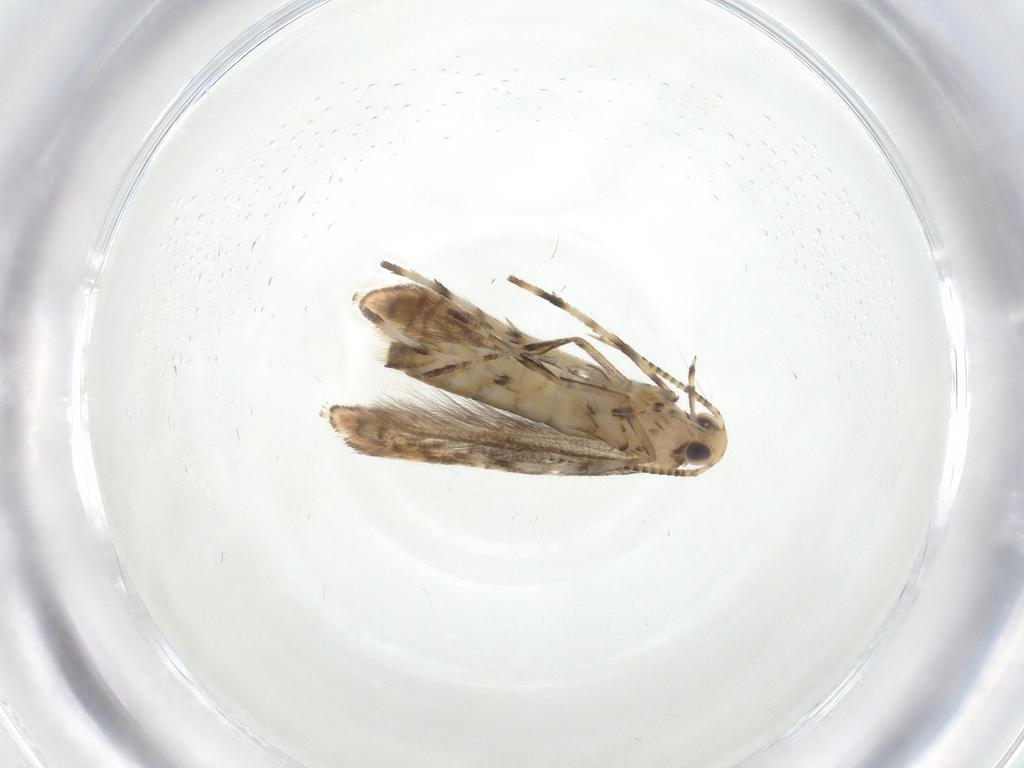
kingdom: Animalia
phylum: Arthropoda
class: Insecta
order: Lepidoptera
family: Gracillariidae
